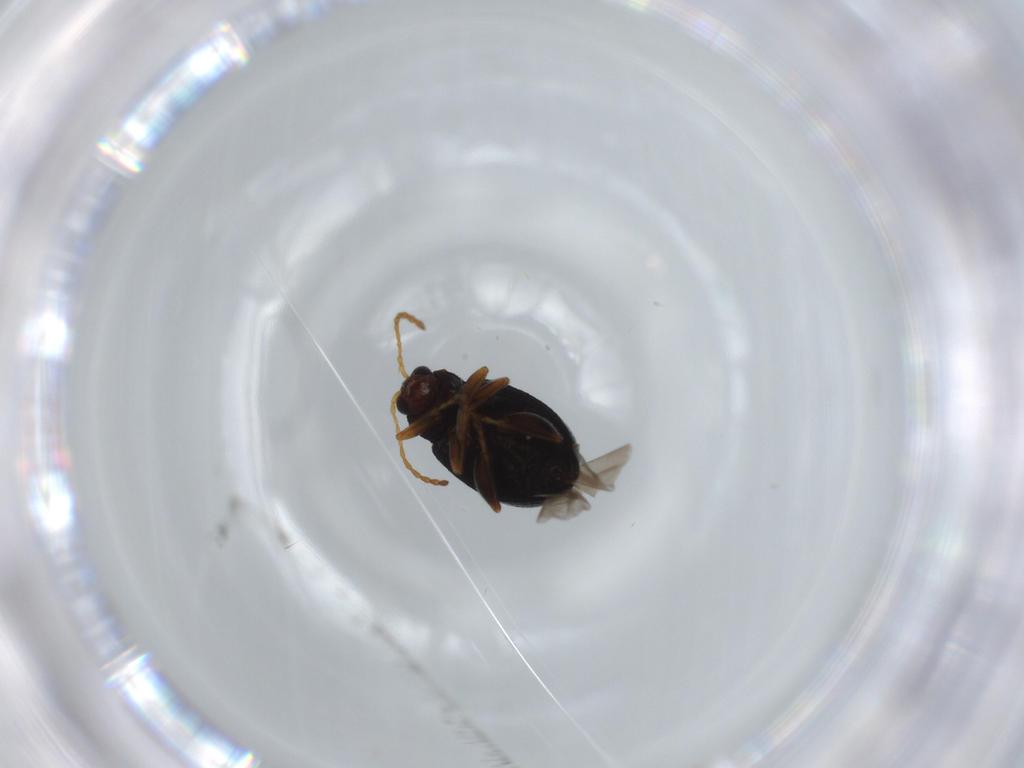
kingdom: Animalia
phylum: Arthropoda
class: Insecta
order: Coleoptera
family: Chrysomelidae
